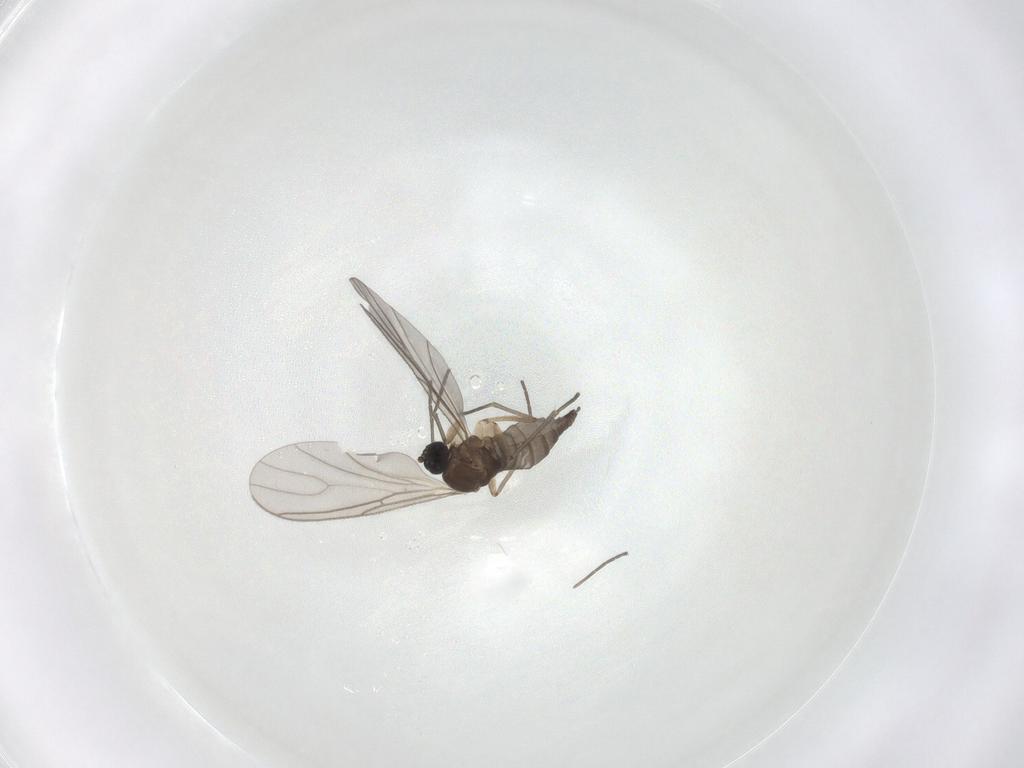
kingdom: Animalia
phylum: Arthropoda
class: Insecta
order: Diptera
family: Sciaridae
